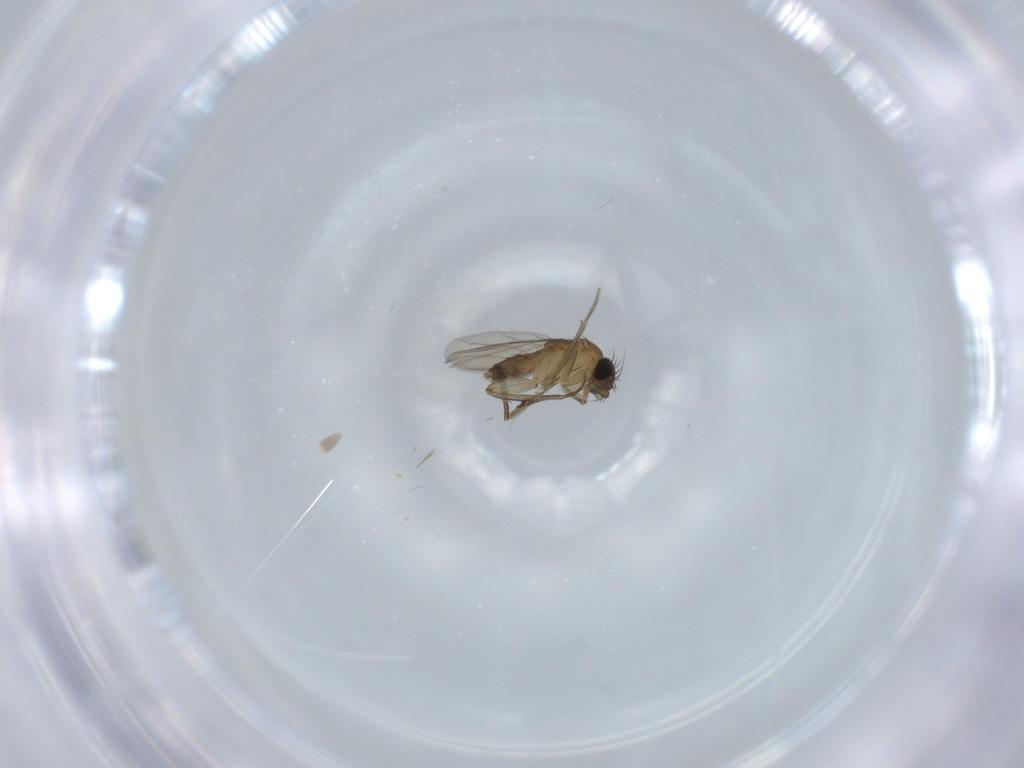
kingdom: Animalia
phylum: Arthropoda
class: Insecta
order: Diptera
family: Phoridae
